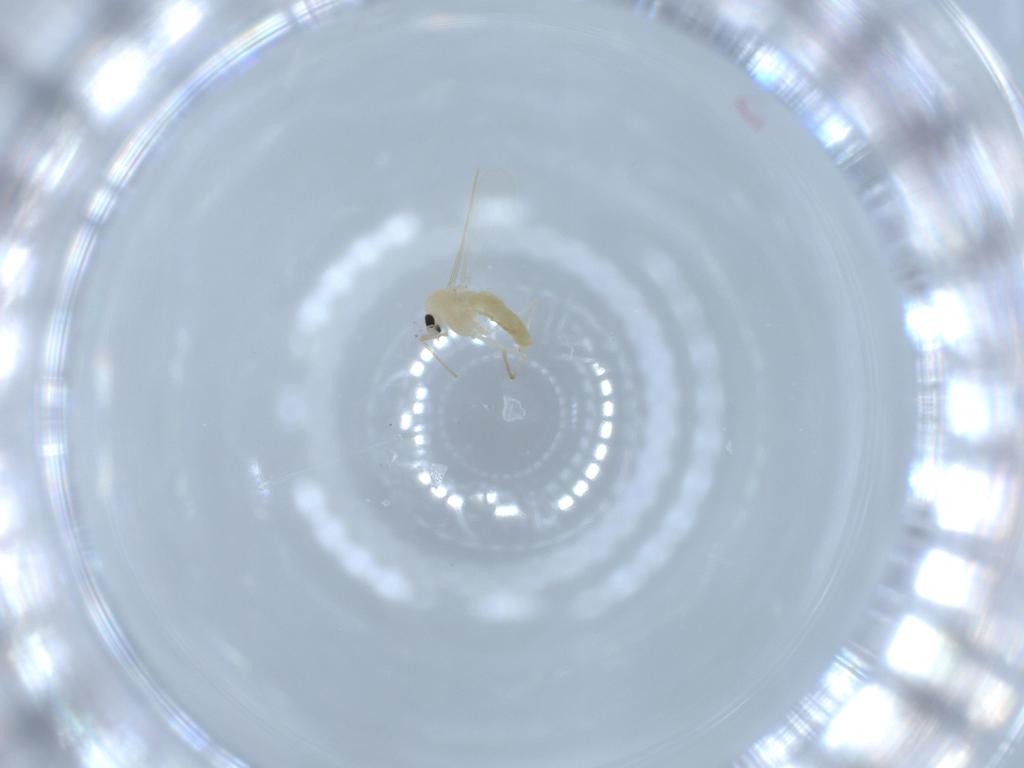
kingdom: Animalia
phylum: Arthropoda
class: Insecta
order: Diptera
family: Chironomidae
